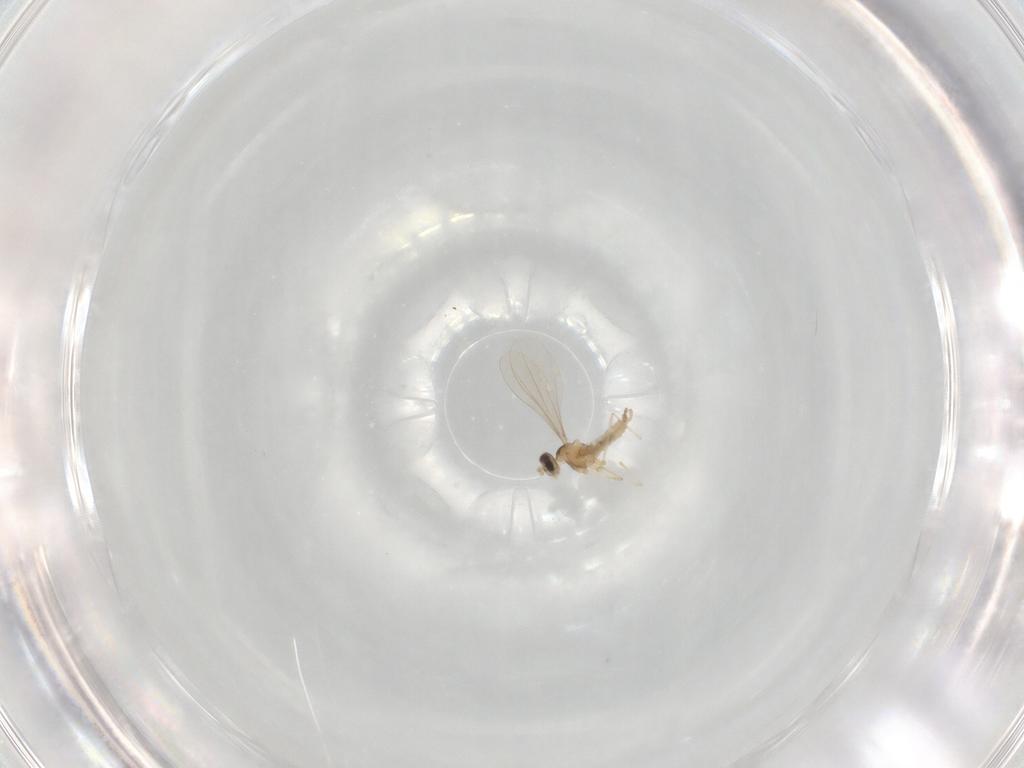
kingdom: Animalia
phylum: Arthropoda
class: Insecta
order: Diptera
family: Cecidomyiidae
